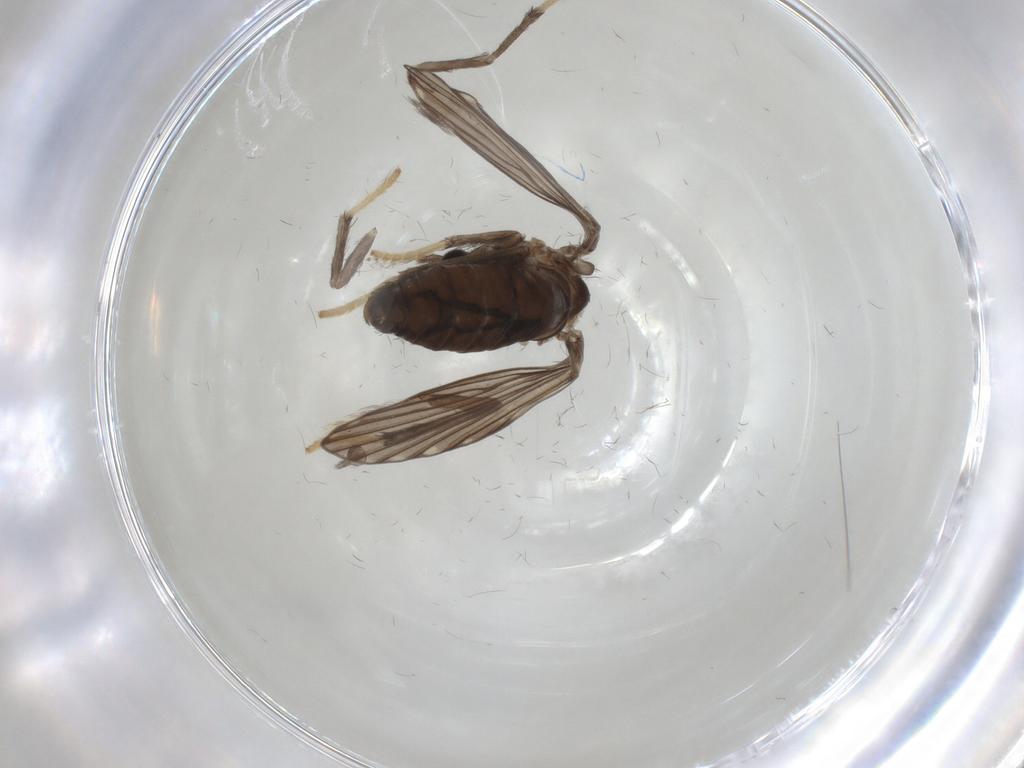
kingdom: Animalia
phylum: Arthropoda
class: Insecta
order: Diptera
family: Psychodidae
